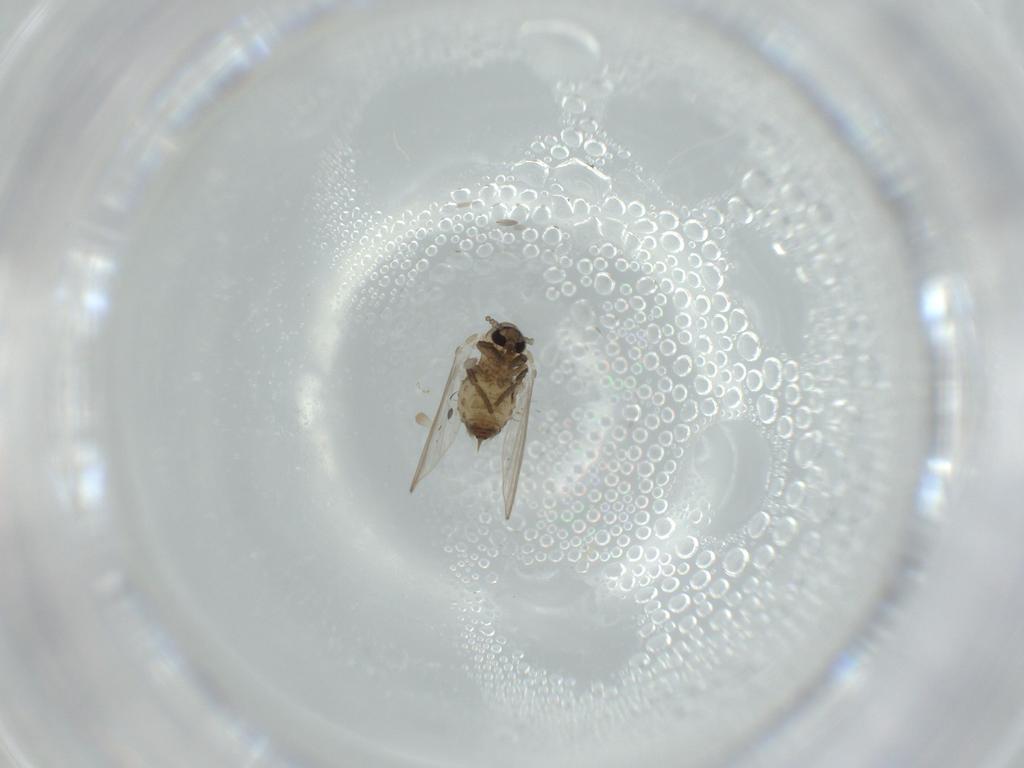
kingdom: Animalia
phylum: Arthropoda
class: Insecta
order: Diptera
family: Psychodidae
